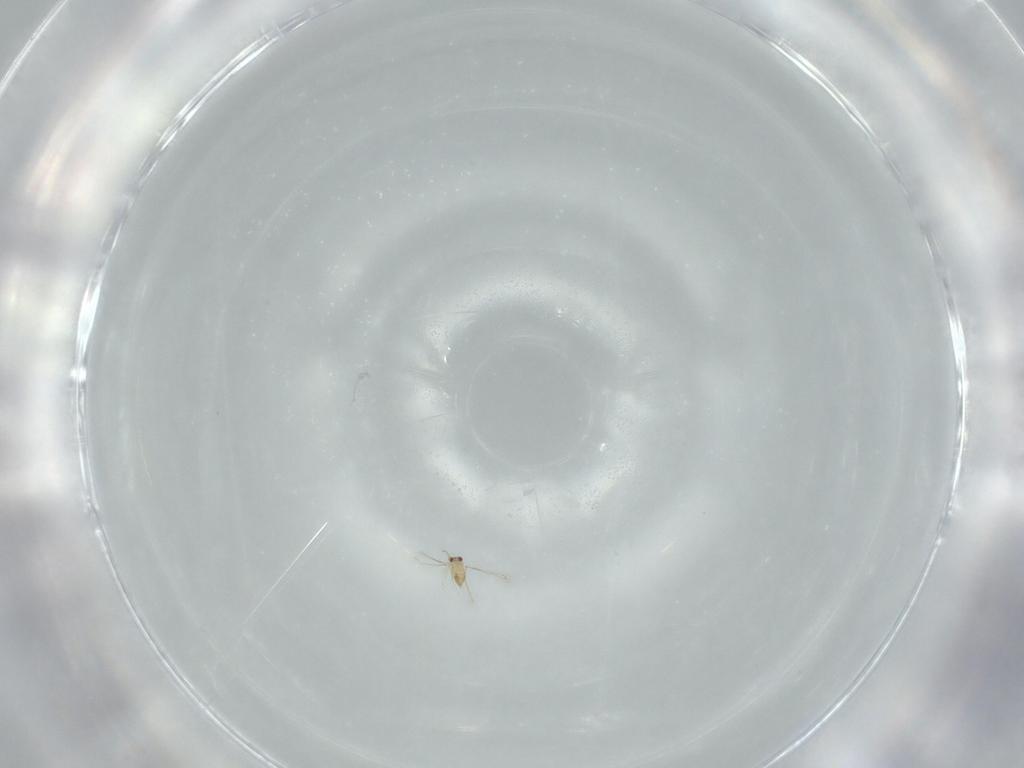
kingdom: Animalia
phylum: Arthropoda
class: Insecta
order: Hymenoptera
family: Mymaridae
